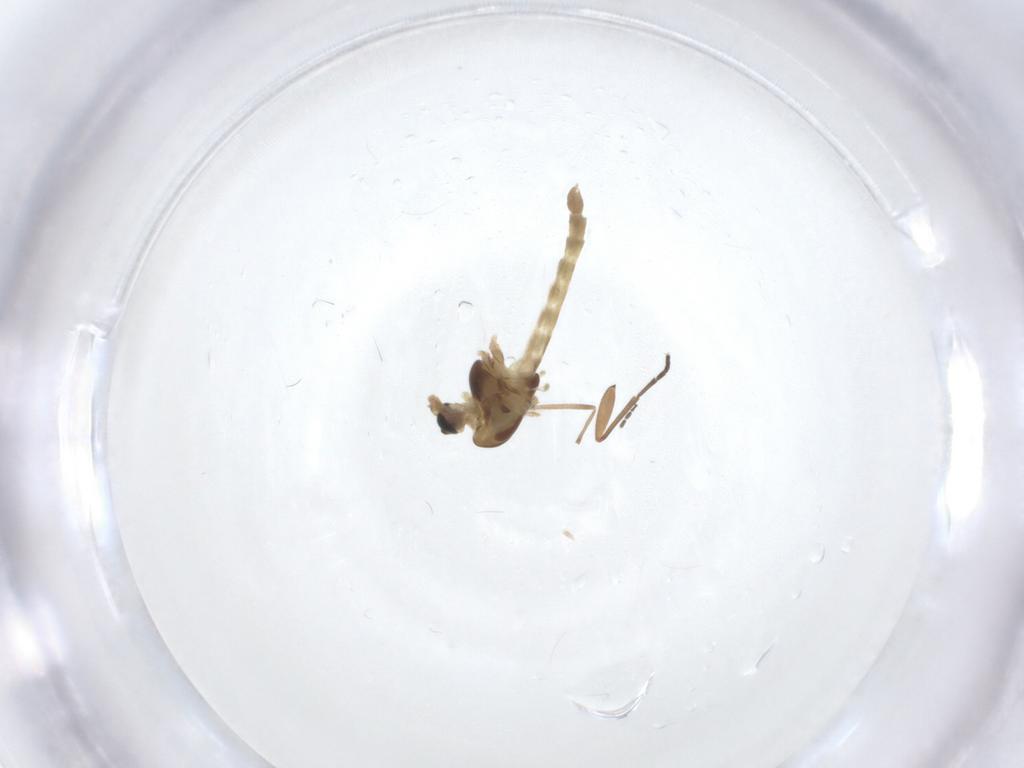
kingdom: Animalia
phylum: Arthropoda
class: Insecta
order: Diptera
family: Chironomidae
